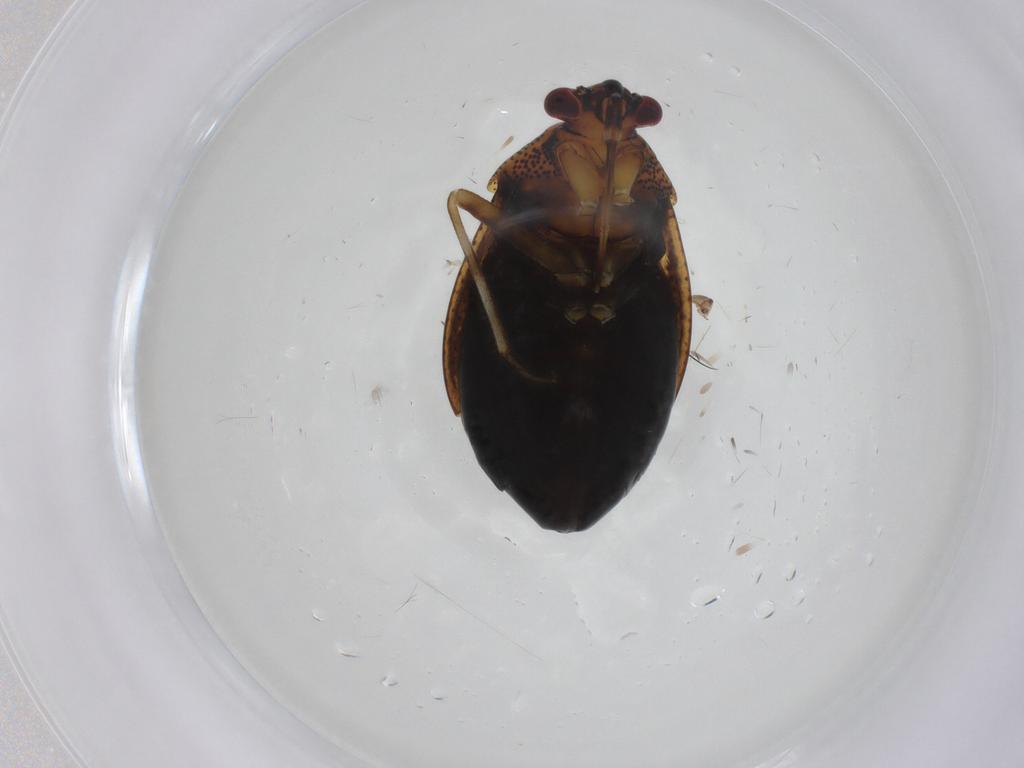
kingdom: Animalia
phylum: Arthropoda
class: Insecta
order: Hemiptera
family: Miridae
